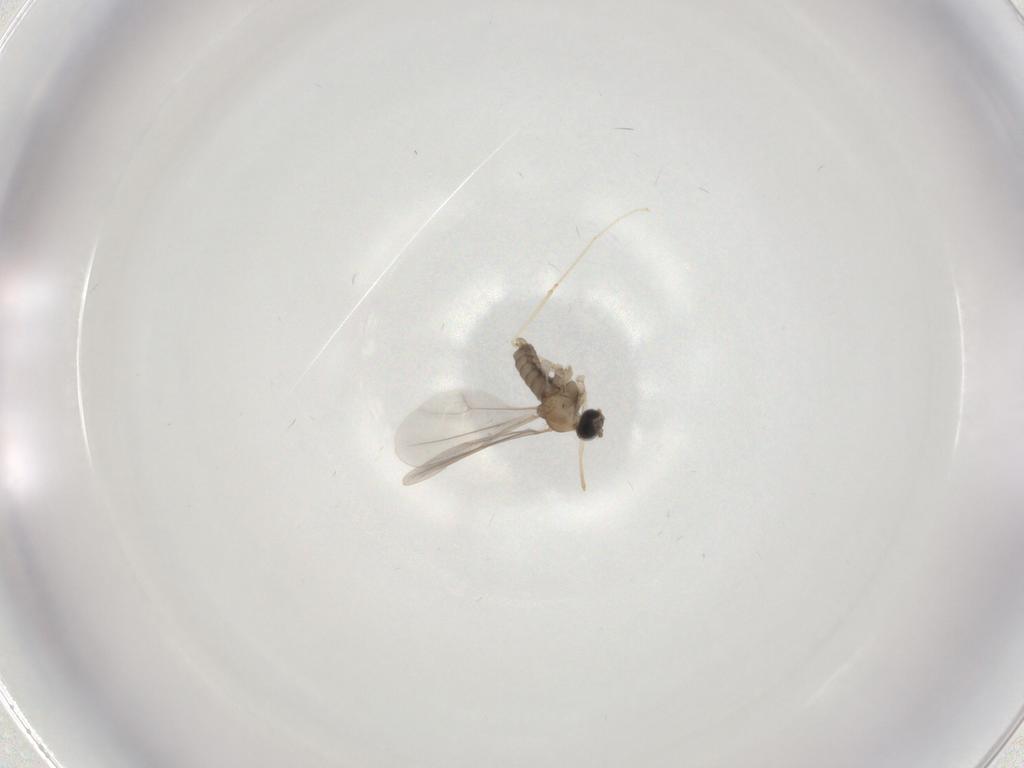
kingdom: Animalia
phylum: Arthropoda
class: Insecta
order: Diptera
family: Cecidomyiidae
